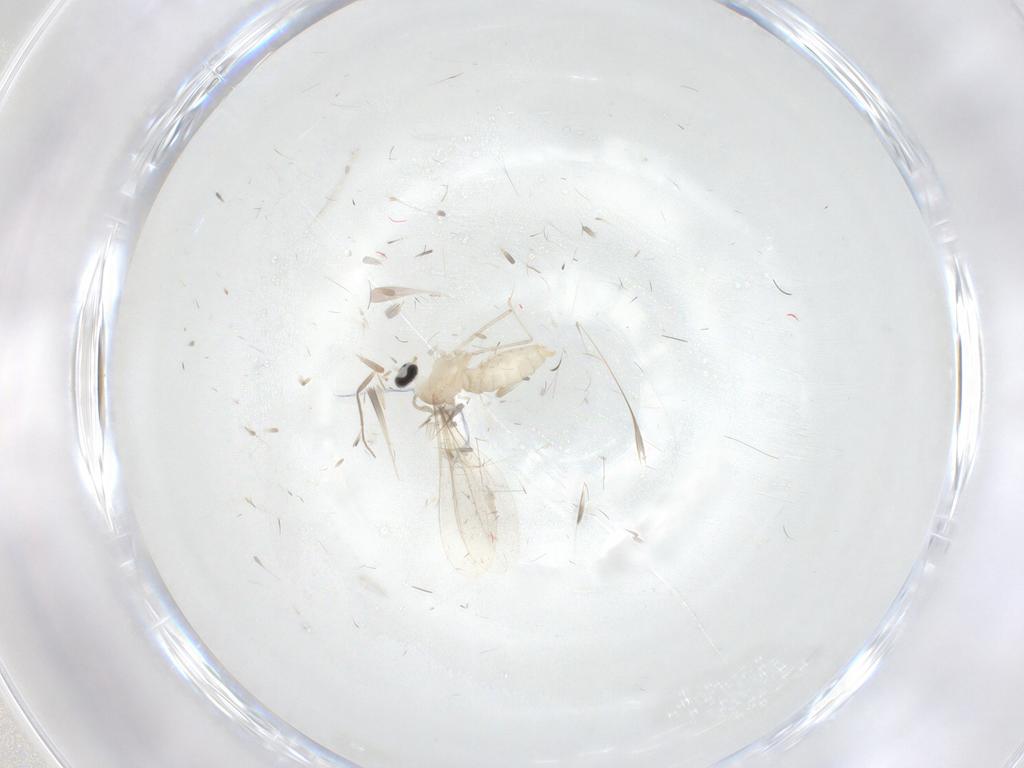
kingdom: Animalia
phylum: Arthropoda
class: Insecta
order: Diptera
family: Cecidomyiidae
